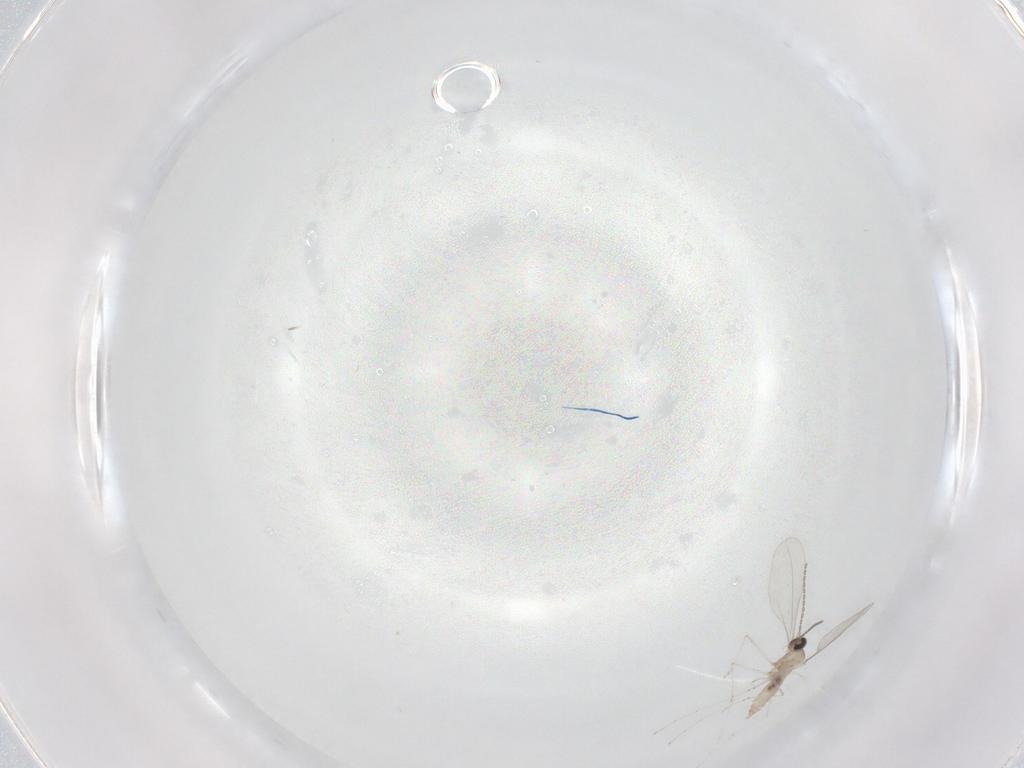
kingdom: Animalia
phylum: Arthropoda
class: Insecta
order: Diptera
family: Cecidomyiidae
